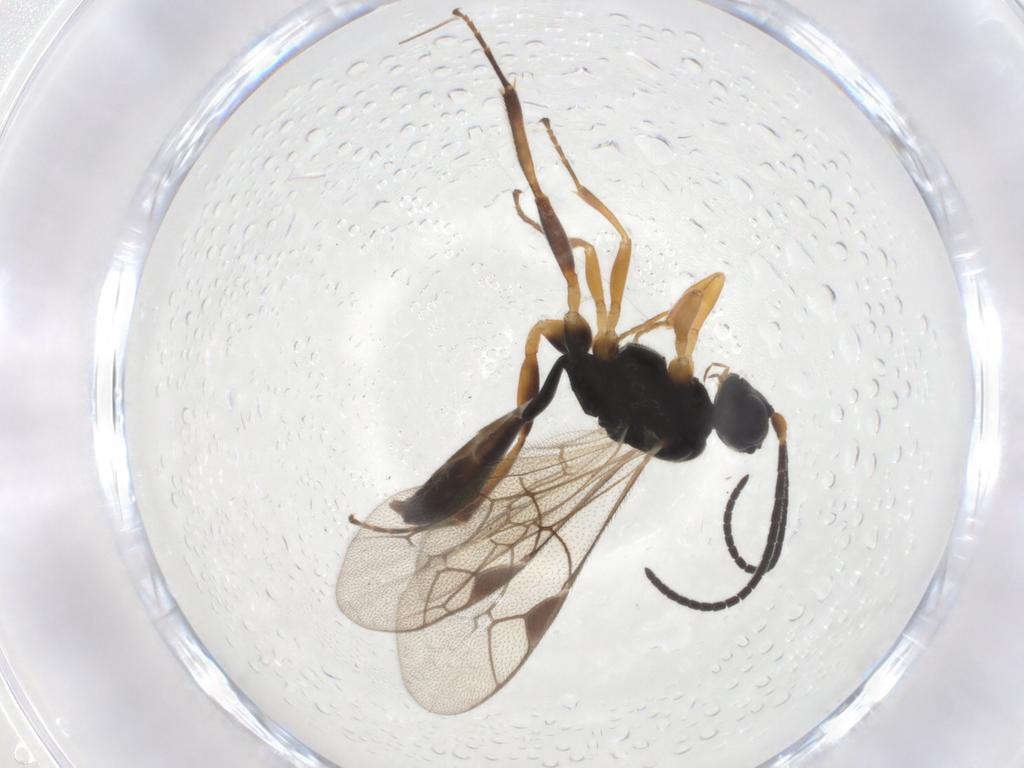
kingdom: Animalia
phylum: Arthropoda
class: Insecta
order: Hymenoptera
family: Ichneumonidae
